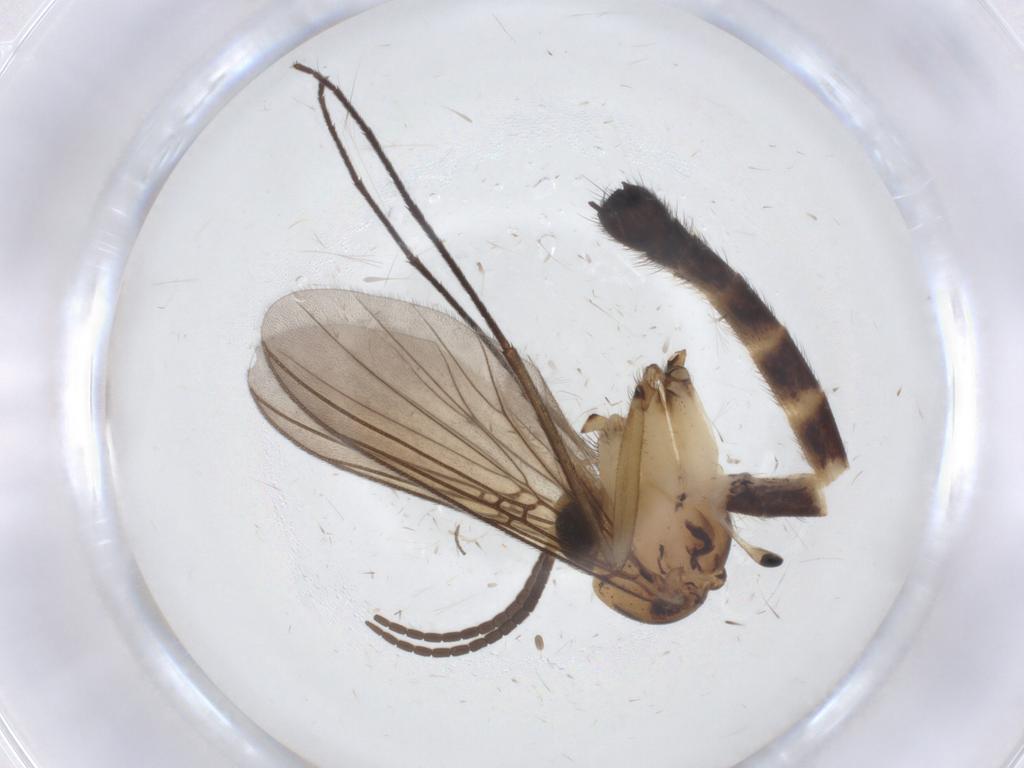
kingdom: Animalia
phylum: Arthropoda
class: Insecta
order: Diptera
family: Mycetophilidae
